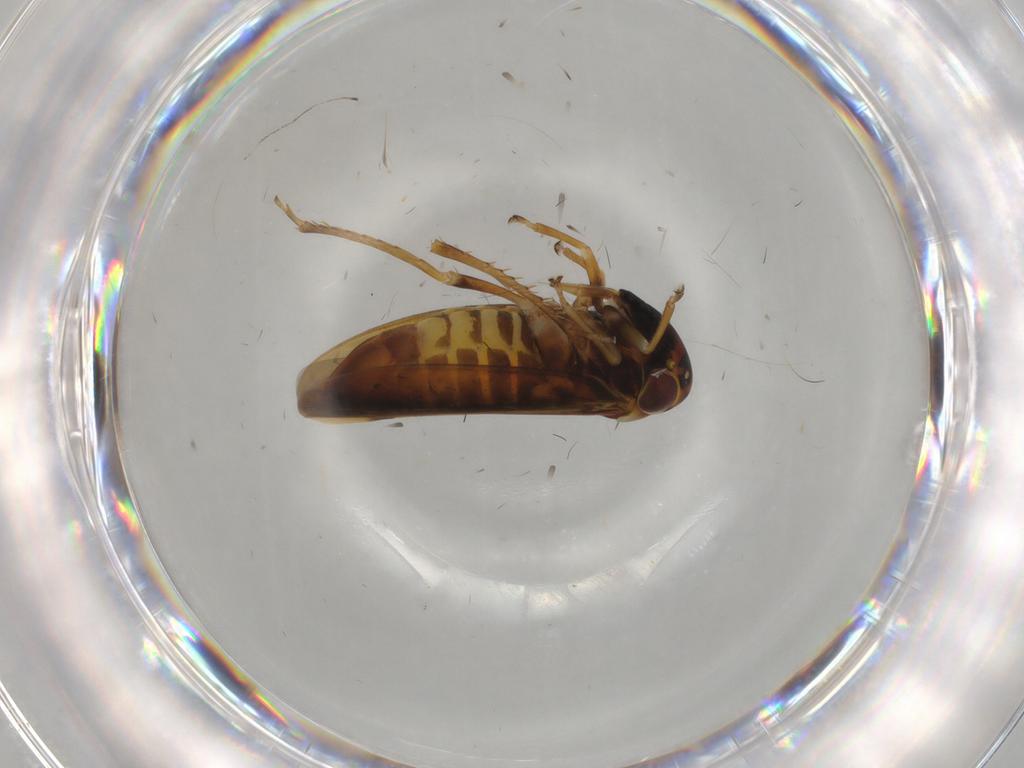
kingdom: Animalia
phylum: Arthropoda
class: Insecta
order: Hemiptera
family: Cicadellidae
